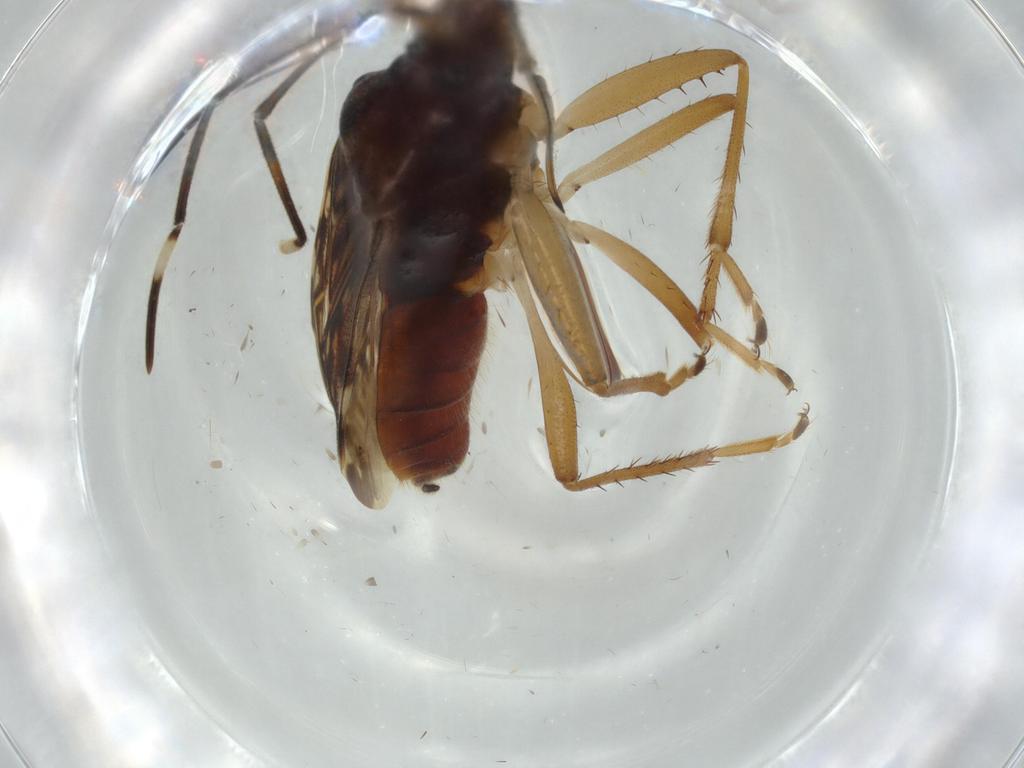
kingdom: Animalia
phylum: Arthropoda
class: Insecta
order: Hemiptera
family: Rhyparochromidae
